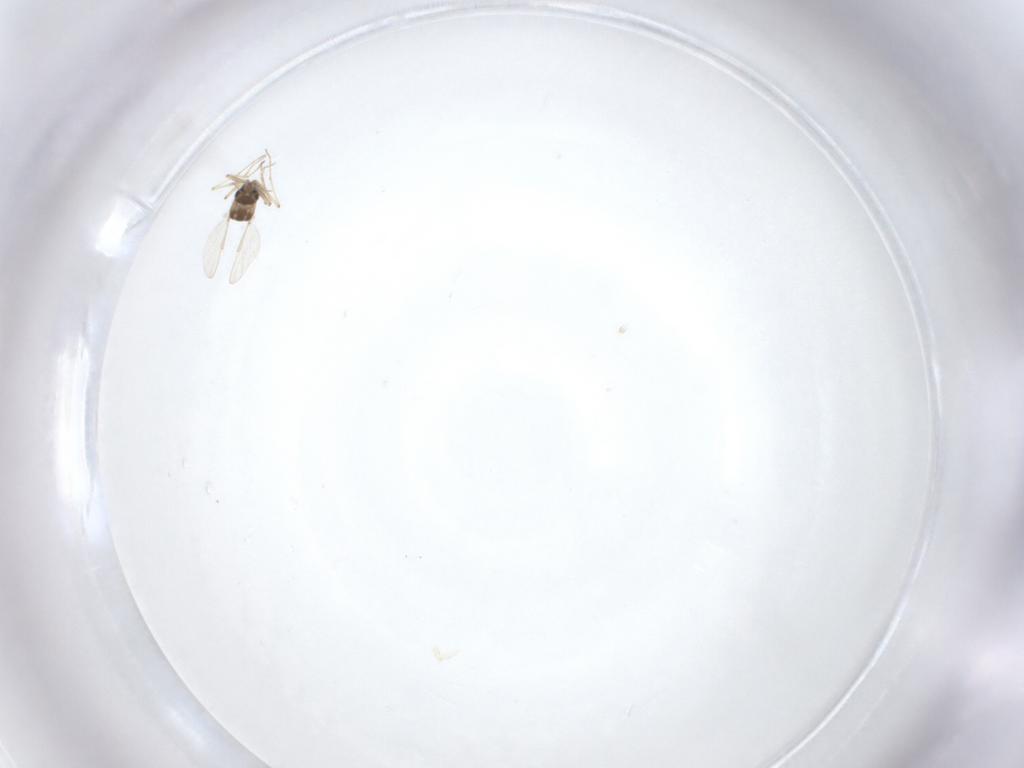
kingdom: Animalia
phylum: Arthropoda
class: Insecta
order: Diptera
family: Chironomidae
